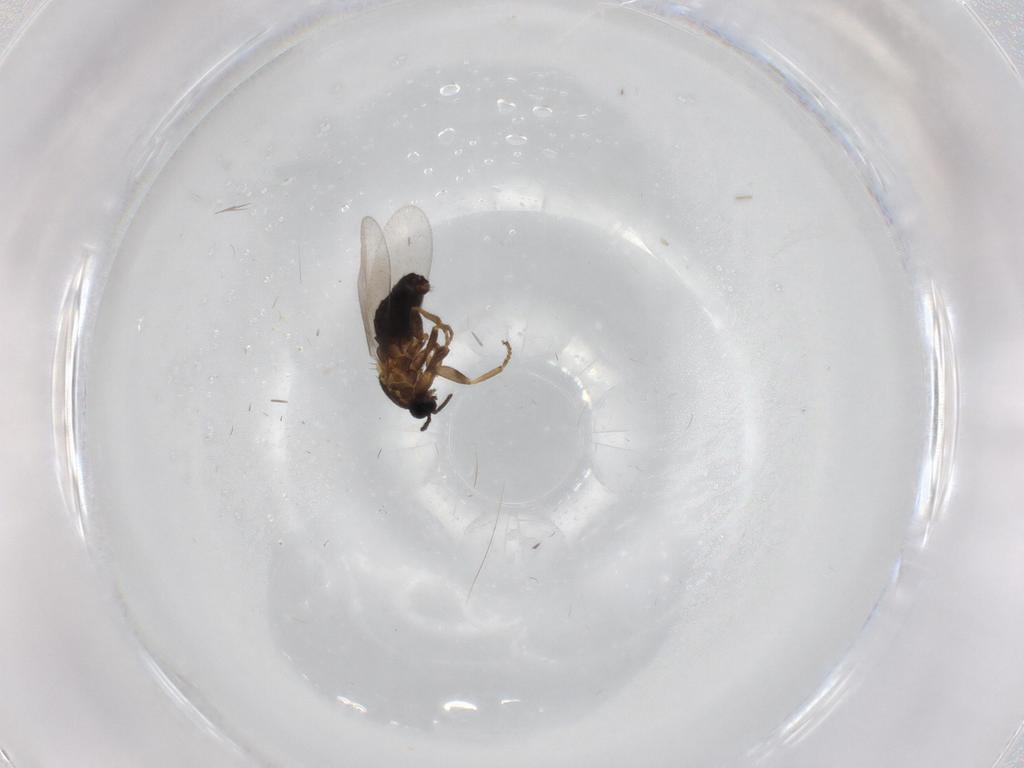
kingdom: Animalia
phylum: Arthropoda
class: Insecta
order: Diptera
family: Scatopsidae
